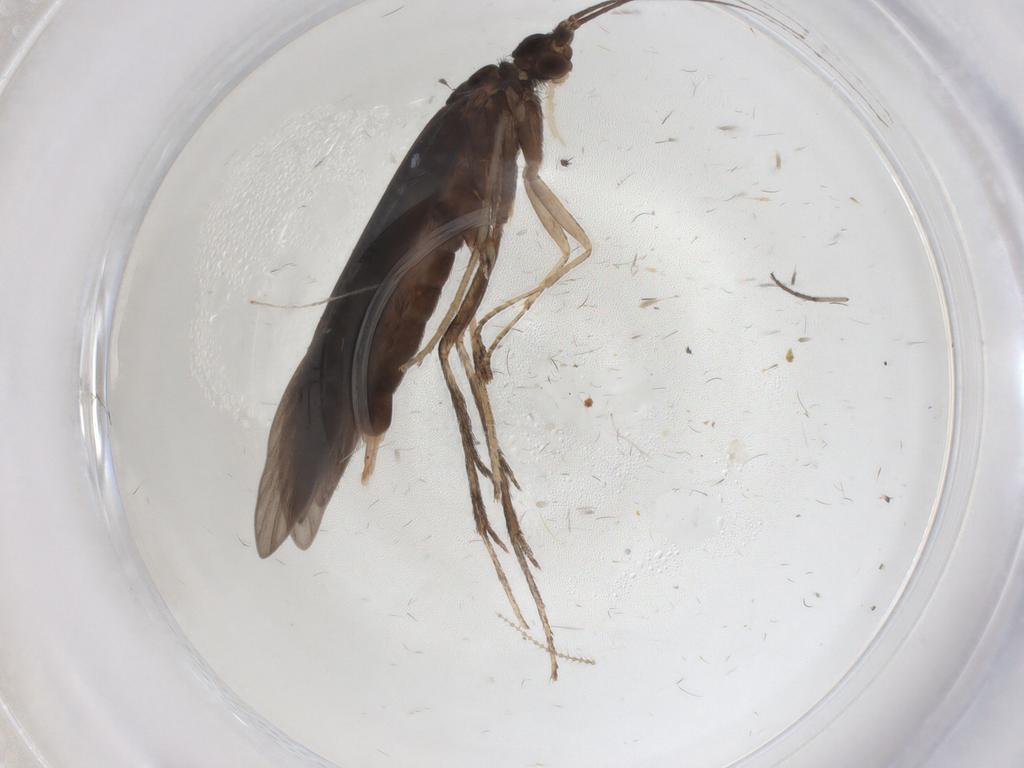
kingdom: Animalia
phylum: Arthropoda
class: Insecta
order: Trichoptera
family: Xiphocentronidae
